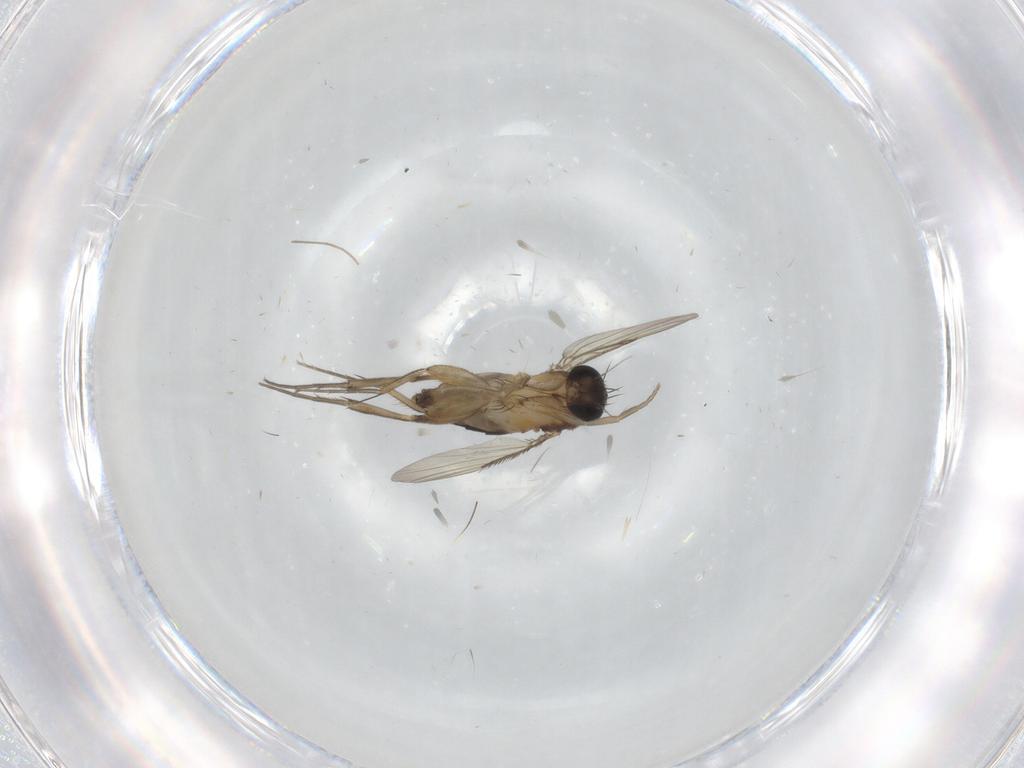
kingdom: Animalia
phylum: Arthropoda
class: Insecta
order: Diptera
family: Phoridae
